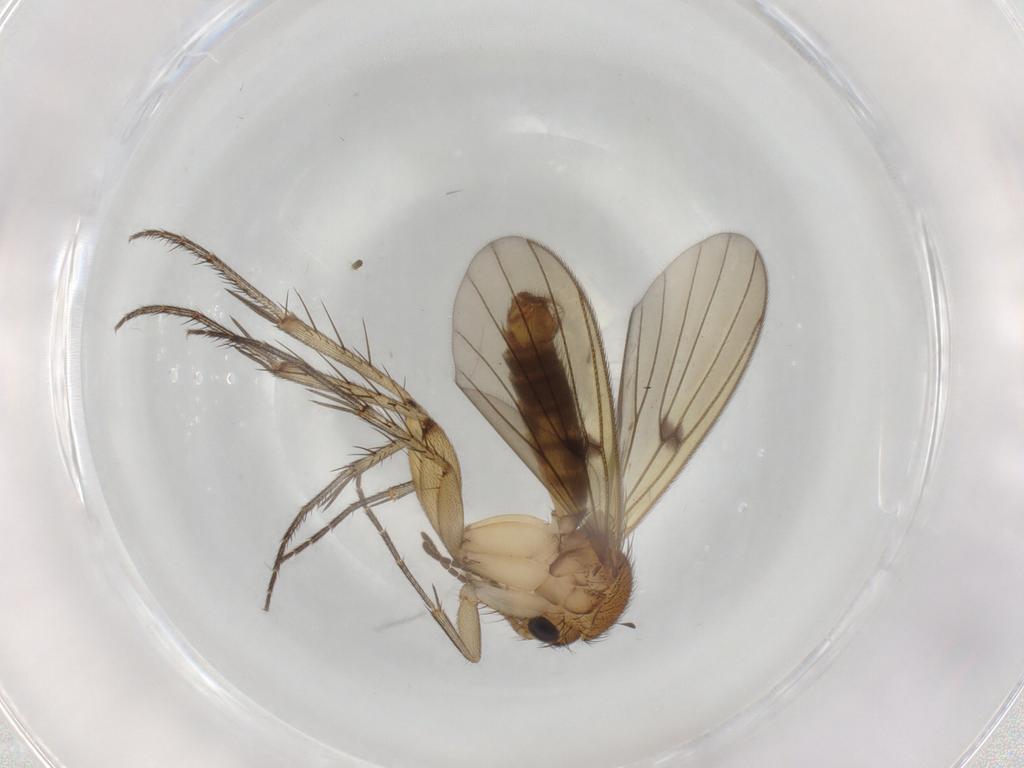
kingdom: Animalia
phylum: Arthropoda
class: Insecta
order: Diptera
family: Mycetophilidae
